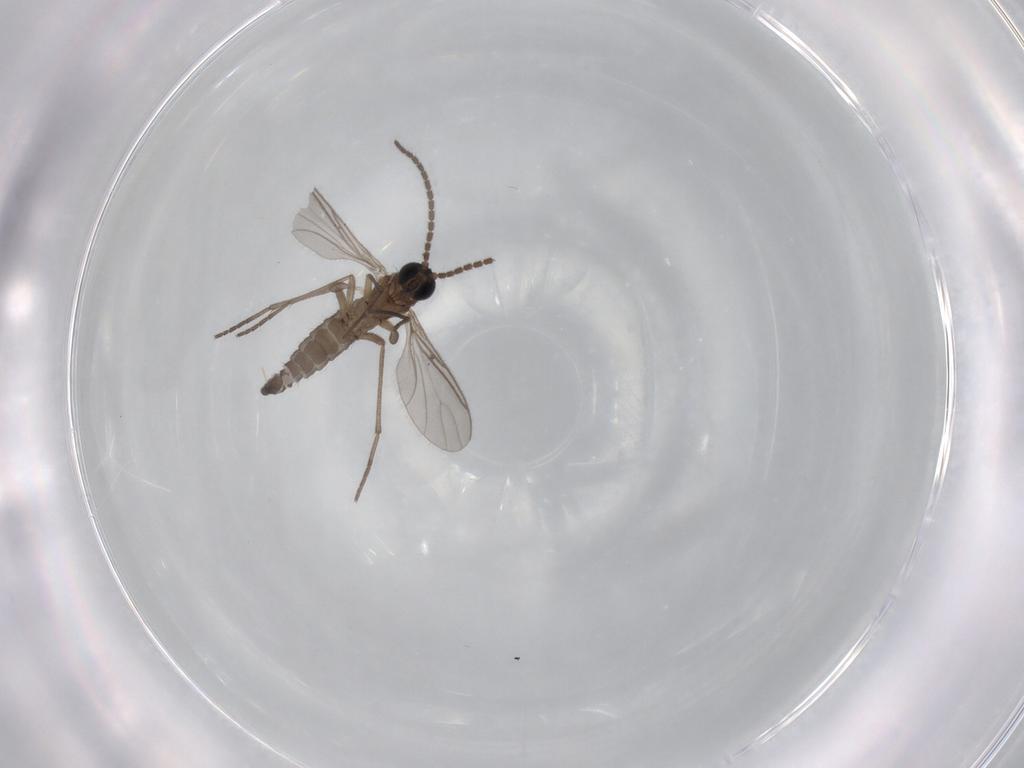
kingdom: Animalia
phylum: Arthropoda
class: Insecta
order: Diptera
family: Sciaridae
